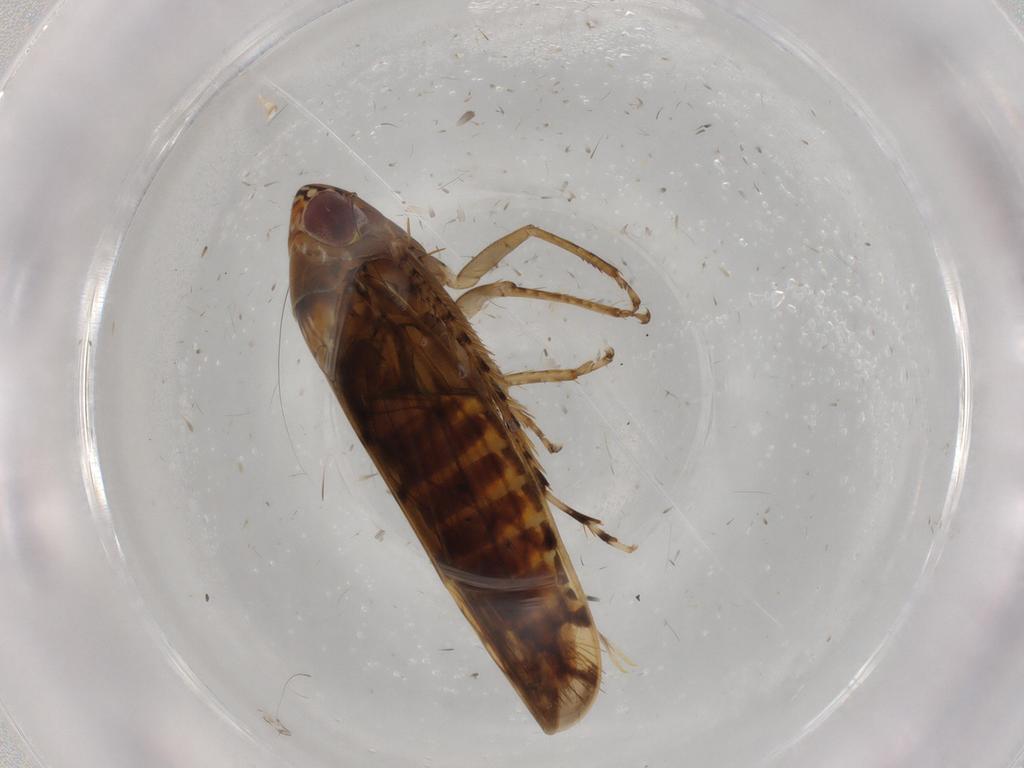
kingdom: Animalia
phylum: Arthropoda
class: Insecta
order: Hemiptera
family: Cicadellidae
